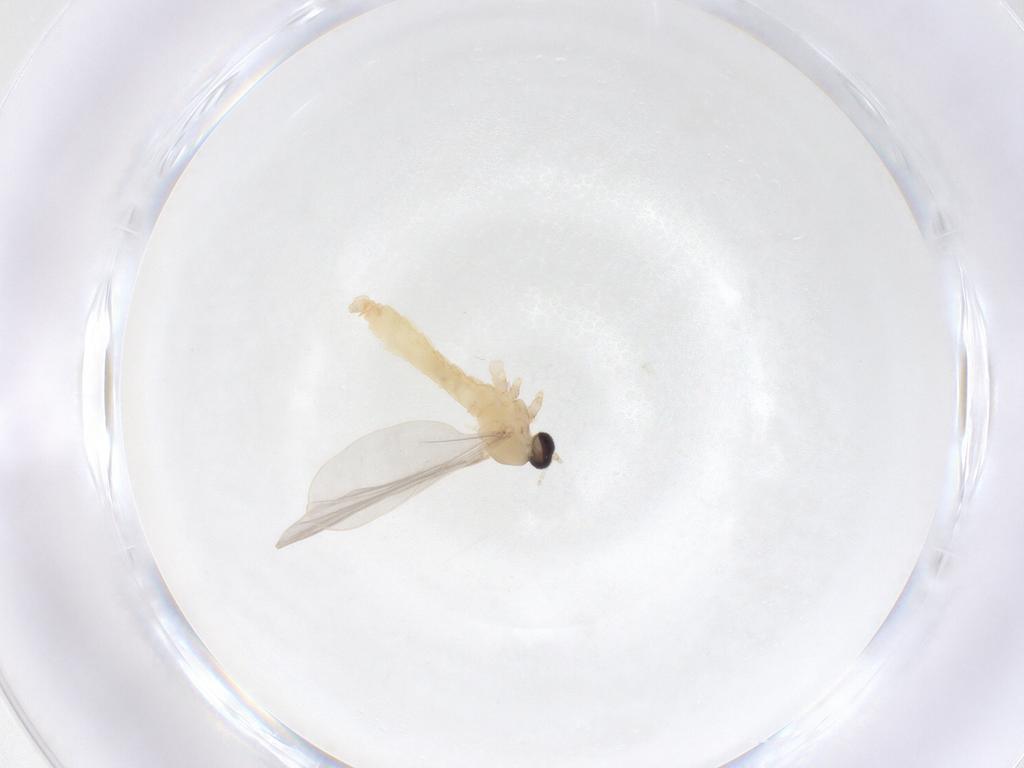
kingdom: Animalia
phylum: Arthropoda
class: Insecta
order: Diptera
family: Cecidomyiidae
